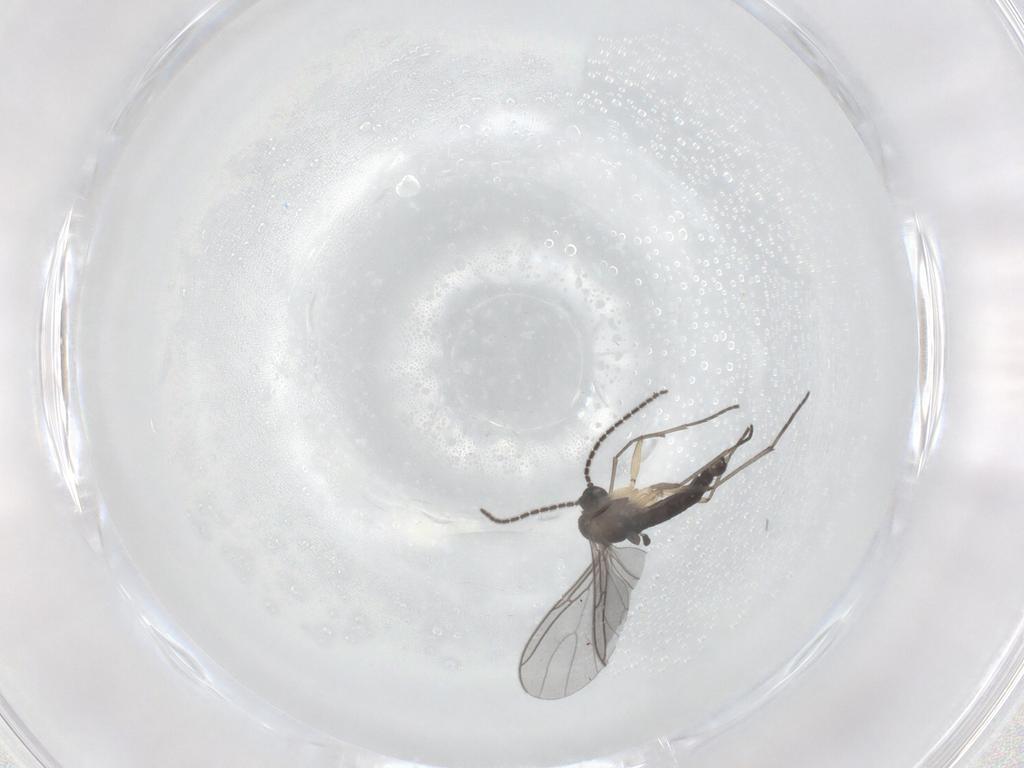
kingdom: Animalia
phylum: Arthropoda
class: Insecta
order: Diptera
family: Sciaridae
